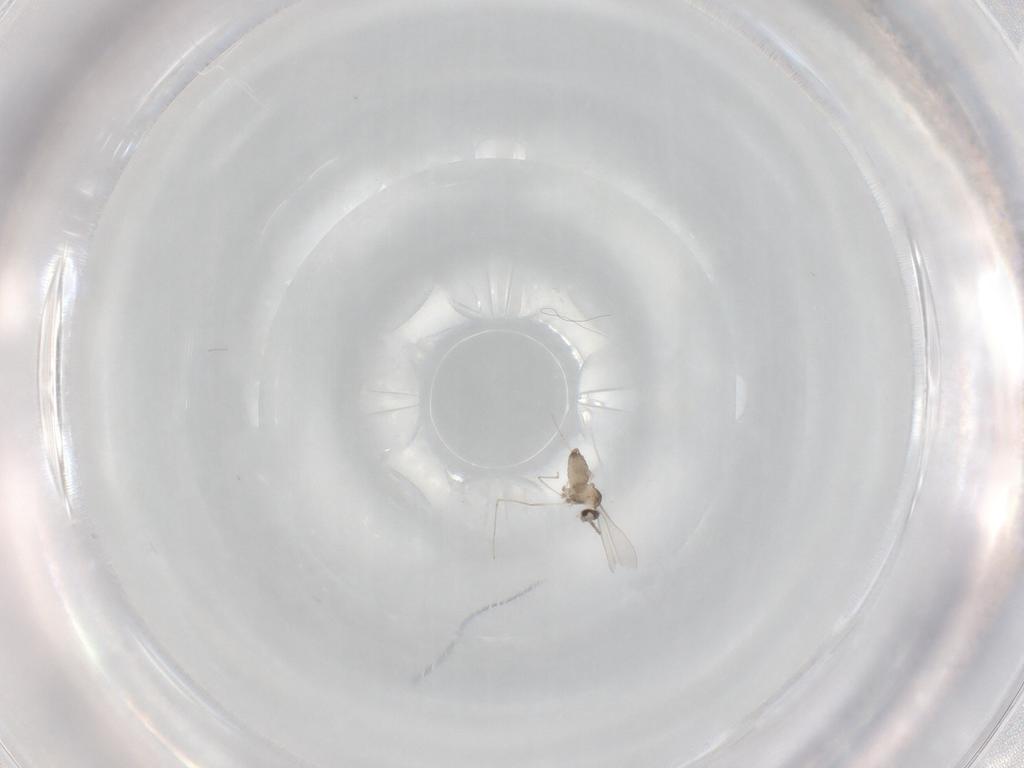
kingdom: Animalia
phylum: Arthropoda
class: Insecta
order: Diptera
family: Cecidomyiidae
